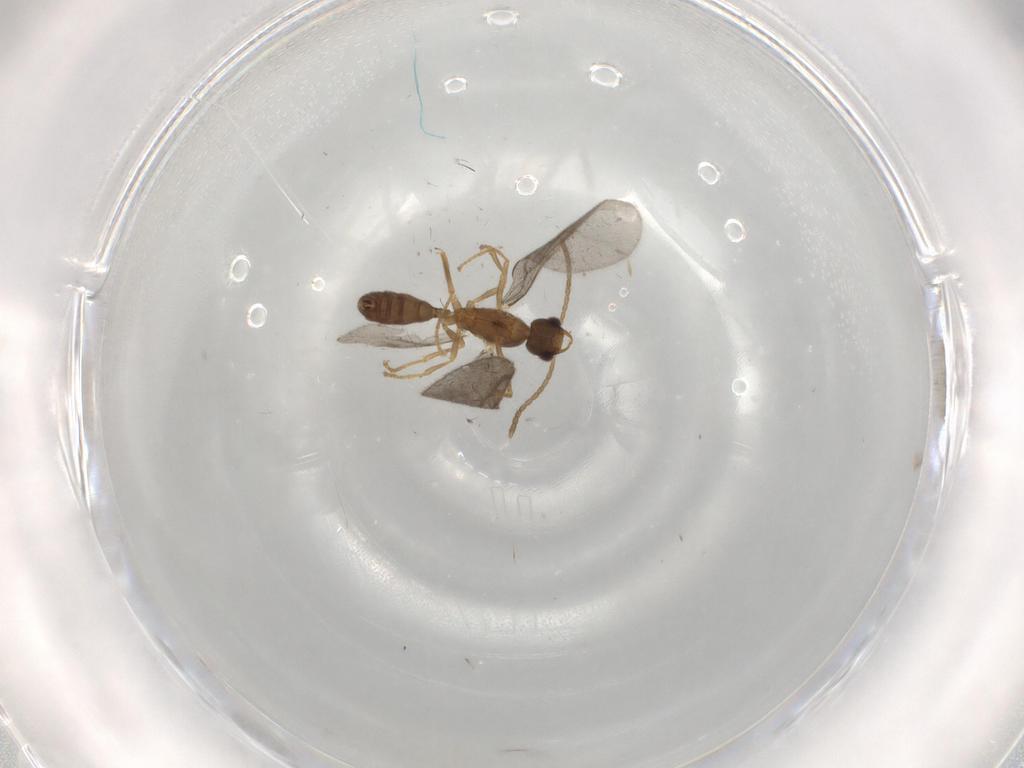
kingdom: Animalia
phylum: Arthropoda
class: Insecta
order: Hymenoptera
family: Formicidae
